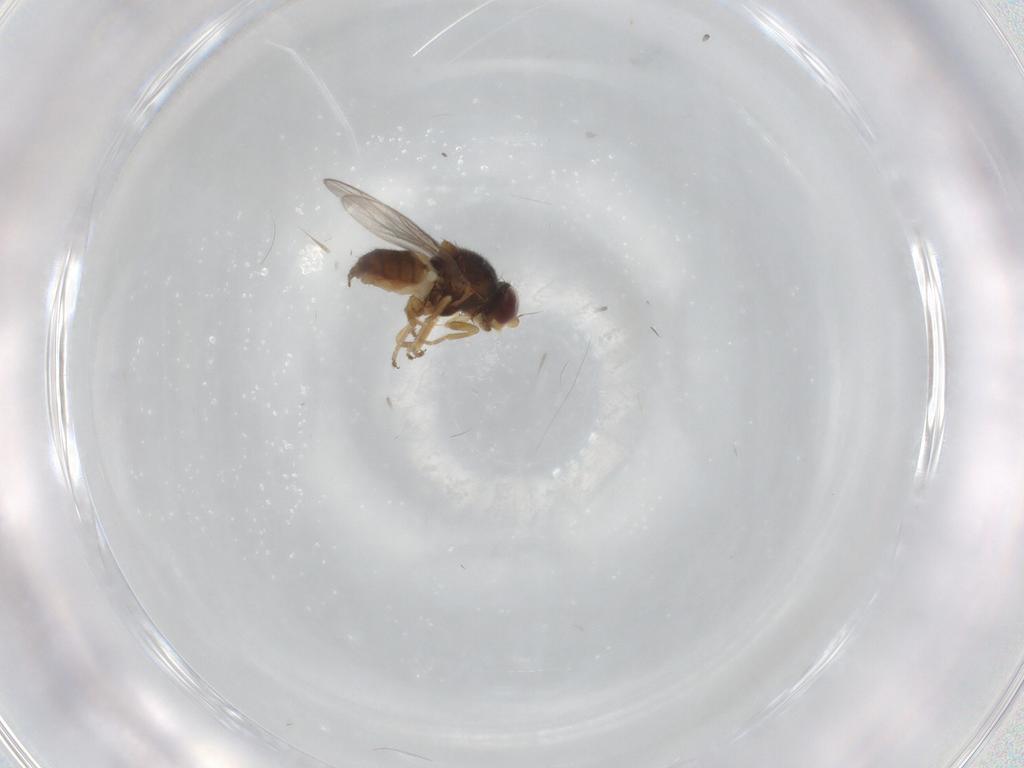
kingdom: Animalia
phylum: Arthropoda
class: Insecta
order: Diptera
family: Chloropidae
